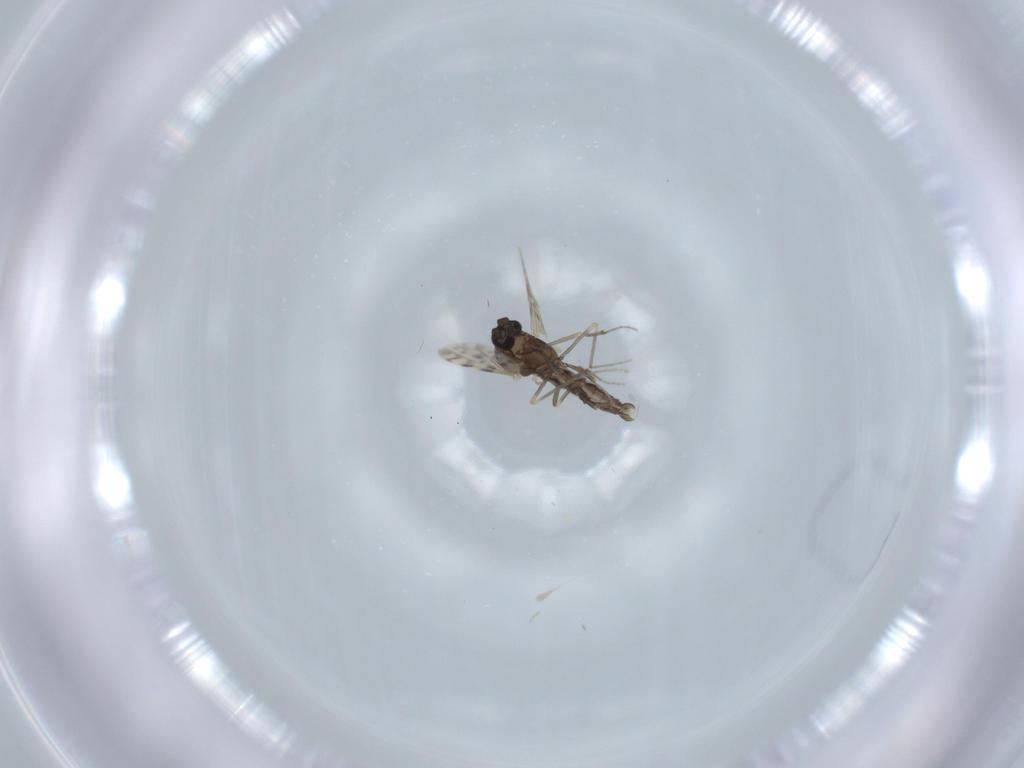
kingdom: Animalia
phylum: Arthropoda
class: Insecta
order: Diptera
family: Ceratopogonidae
